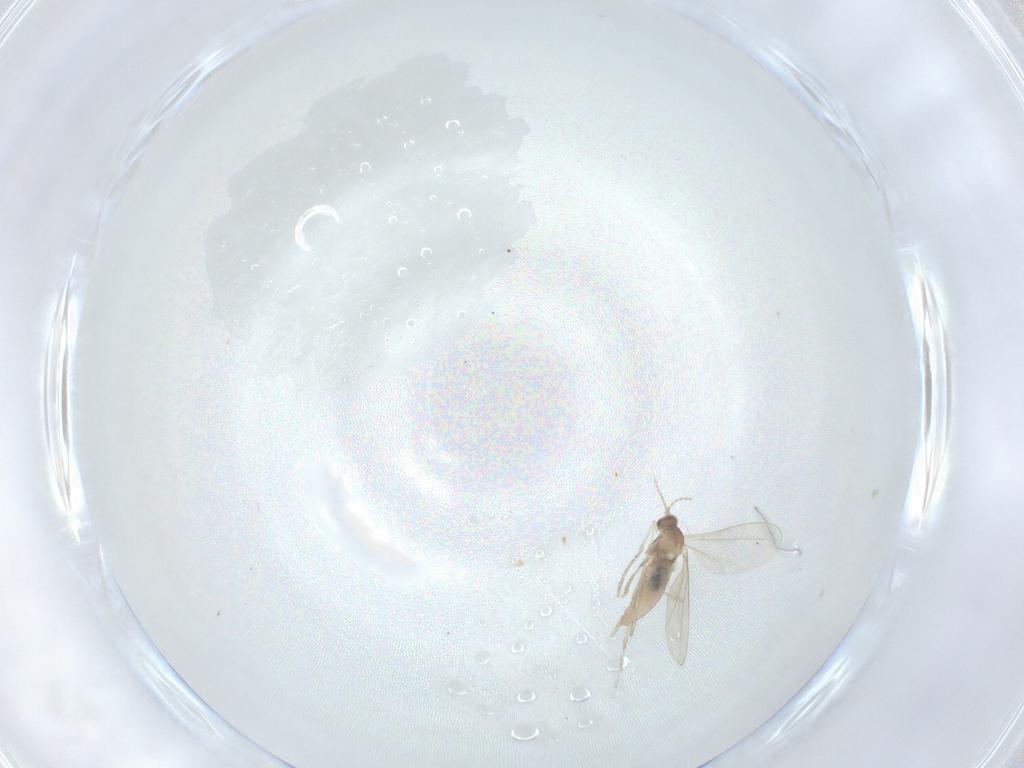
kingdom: Animalia
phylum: Arthropoda
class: Insecta
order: Diptera
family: Cecidomyiidae
